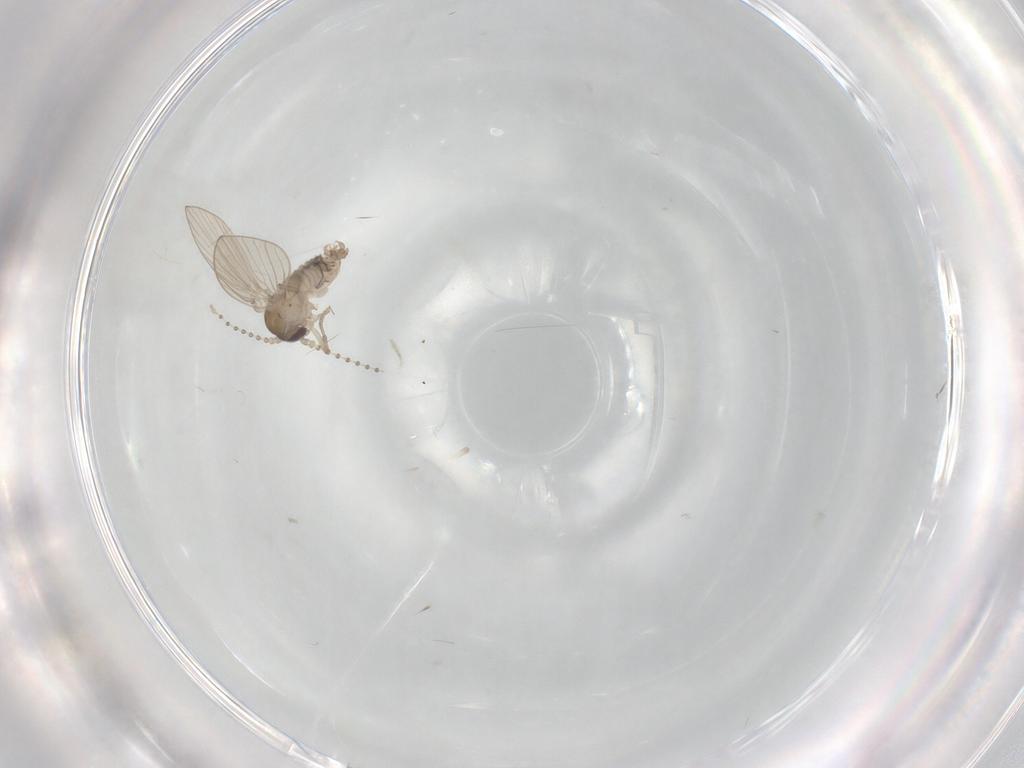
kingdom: Animalia
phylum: Arthropoda
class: Insecta
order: Diptera
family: Psychodidae
